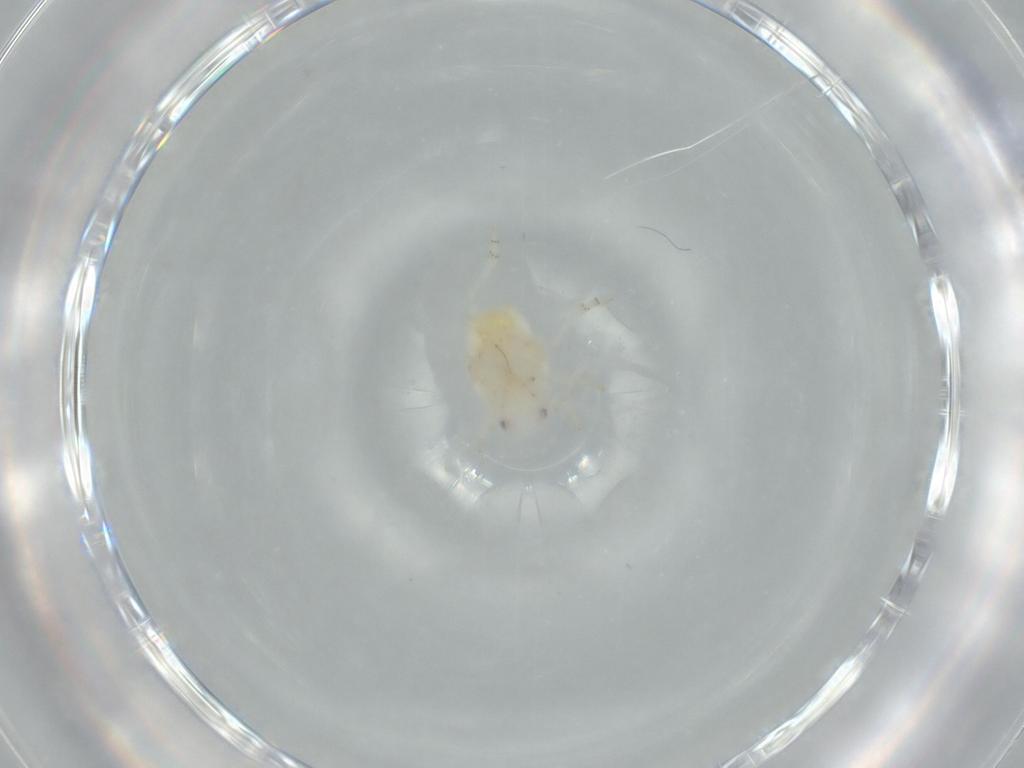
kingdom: Animalia
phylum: Arthropoda
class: Insecta
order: Hemiptera
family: Flatidae
